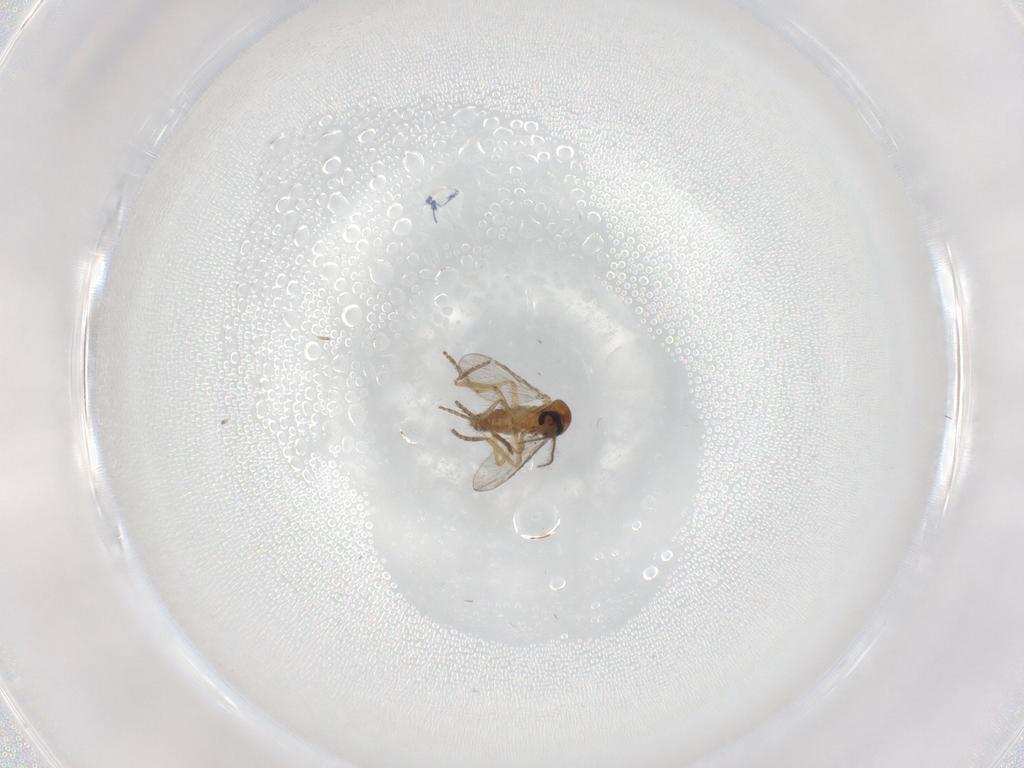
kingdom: Animalia
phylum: Arthropoda
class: Insecta
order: Diptera
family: Ceratopogonidae
